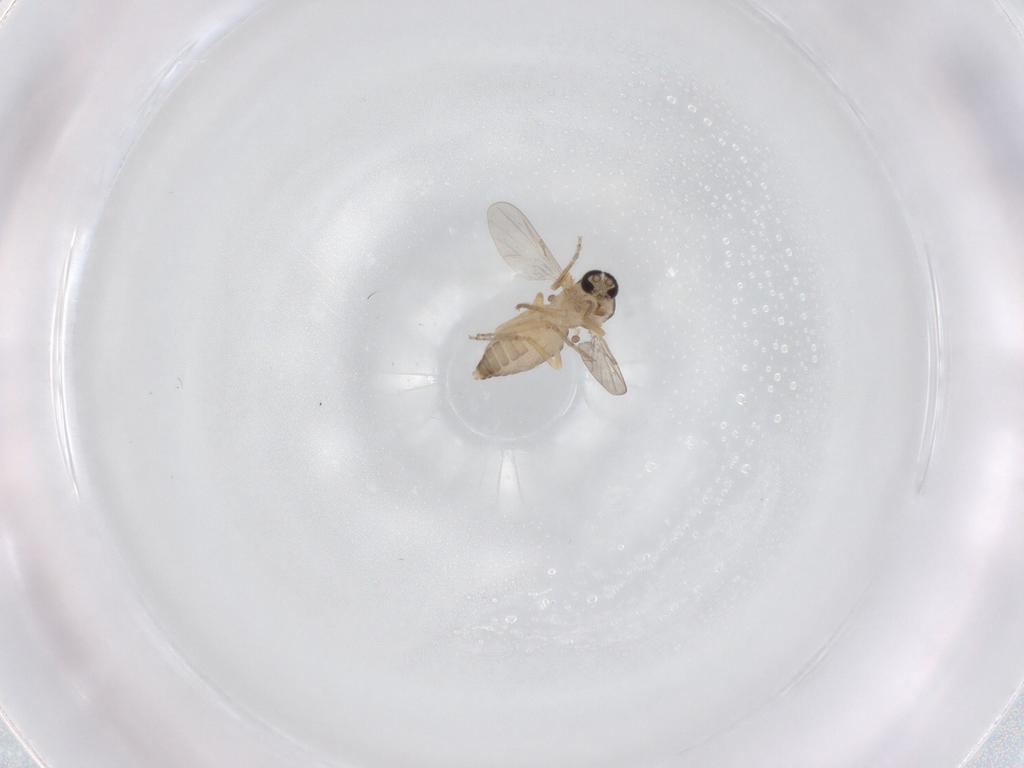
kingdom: Animalia
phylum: Arthropoda
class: Insecta
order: Diptera
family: Ceratopogonidae
